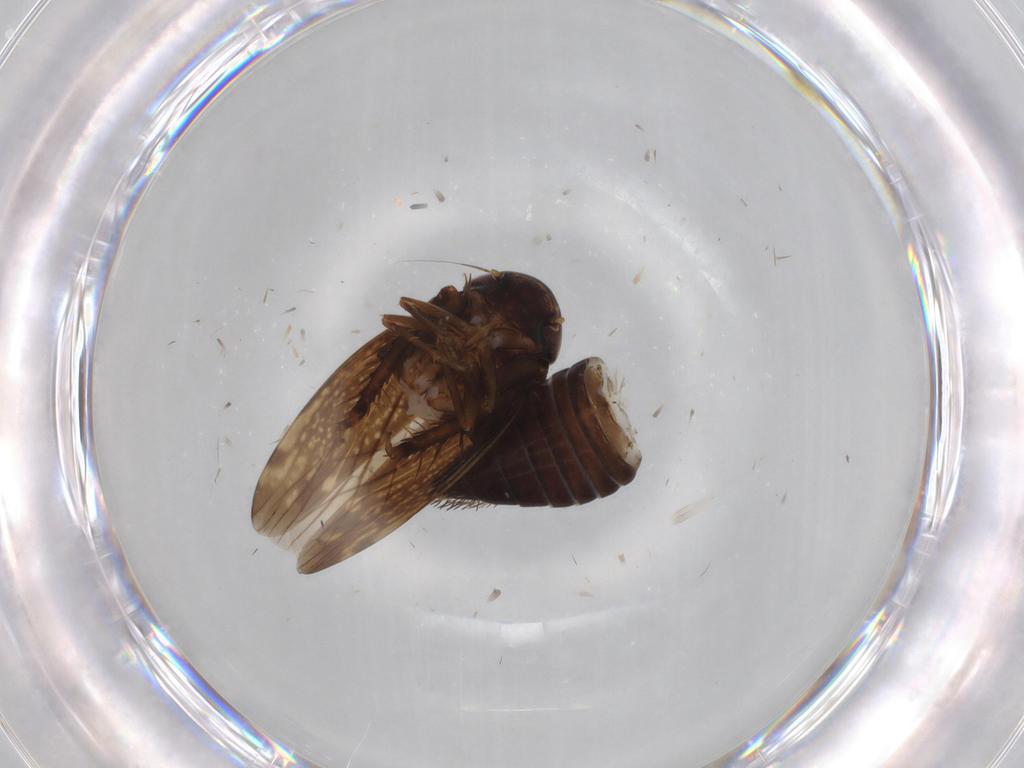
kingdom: Animalia
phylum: Arthropoda
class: Insecta
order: Hemiptera
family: Cicadellidae
